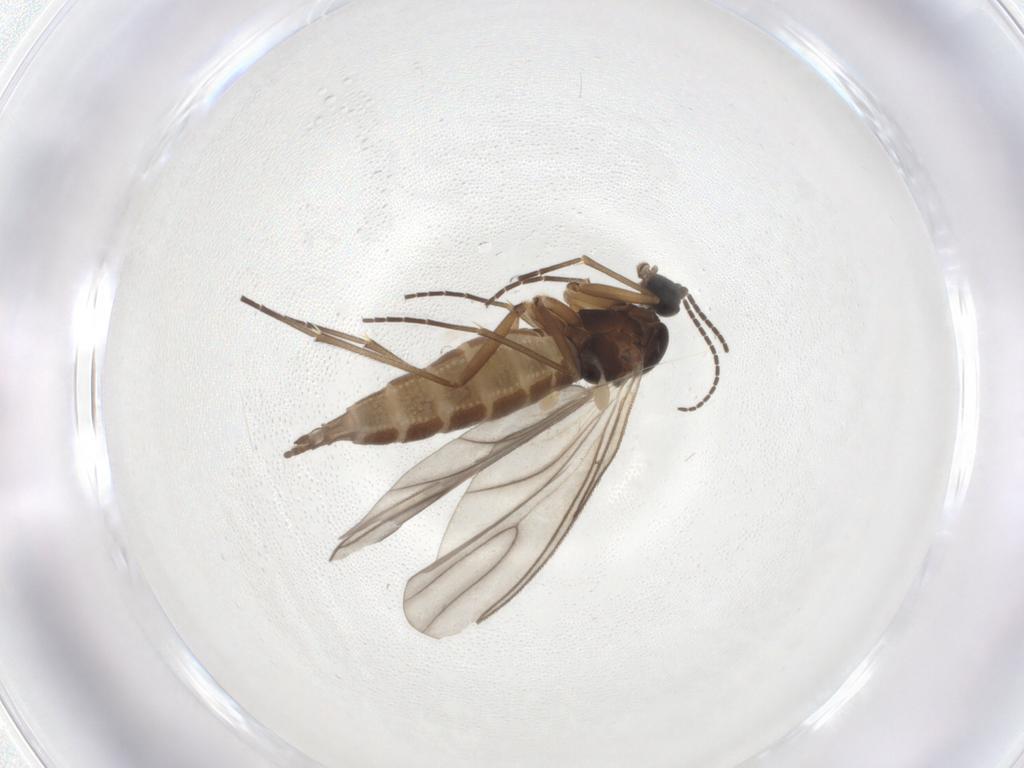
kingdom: Animalia
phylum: Arthropoda
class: Insecta
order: Diptera
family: Sciaridae
